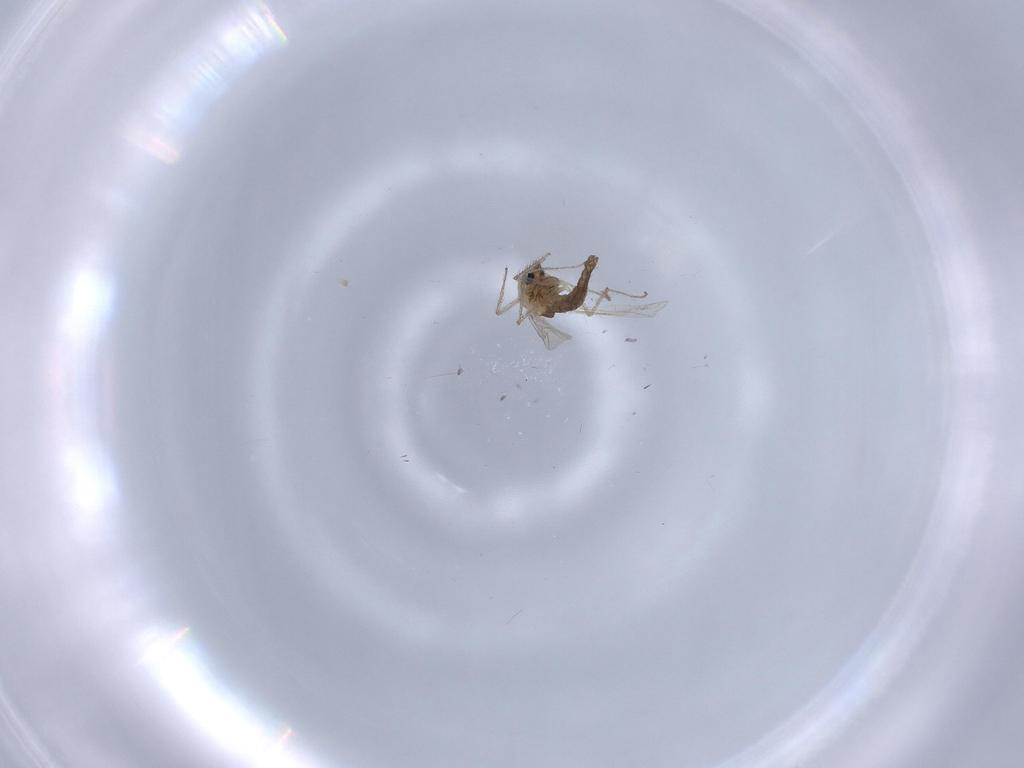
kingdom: Animalia
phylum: Arthropoda
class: Insecta
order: Diptera
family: Chironomidae
